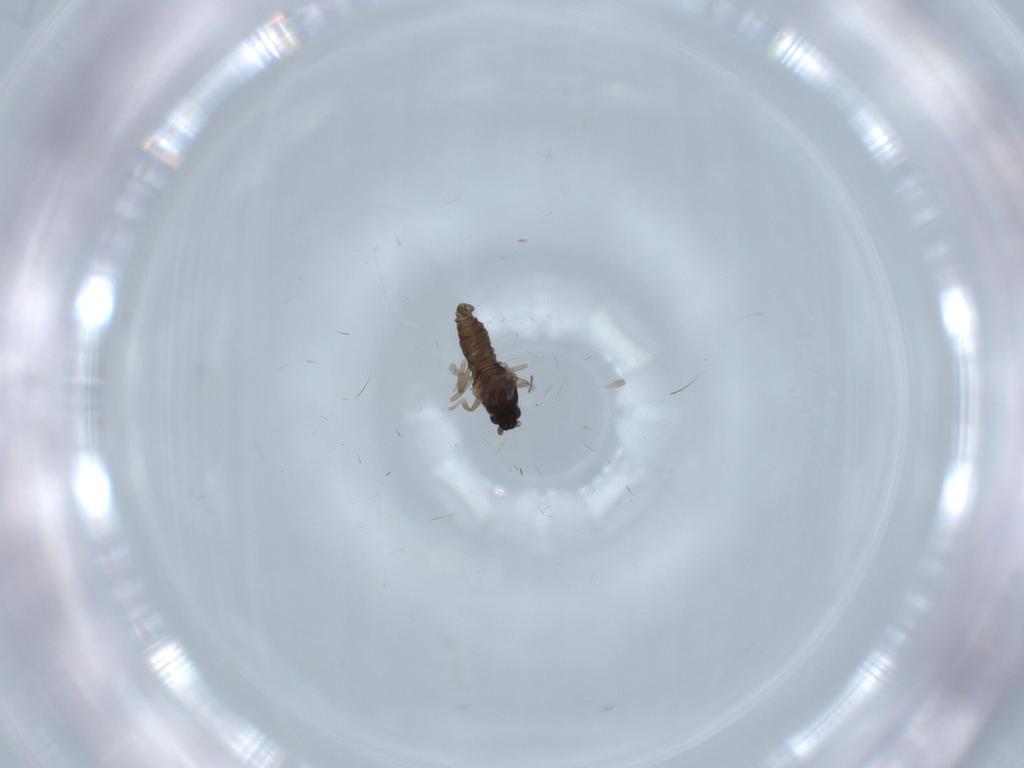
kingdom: Animalia
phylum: Arthropoda
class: Insecta
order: Diptera
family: Cecidomyiidae
